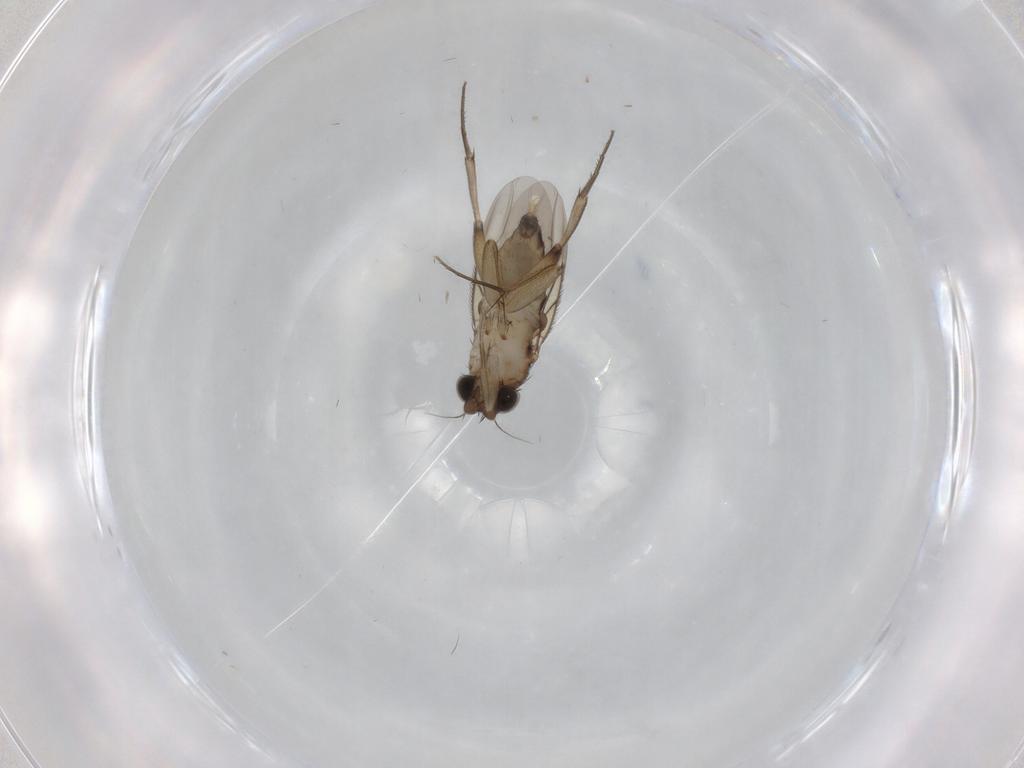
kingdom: Animalia
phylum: Arthropoda
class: Insecta
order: Diptera
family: Phoridae
